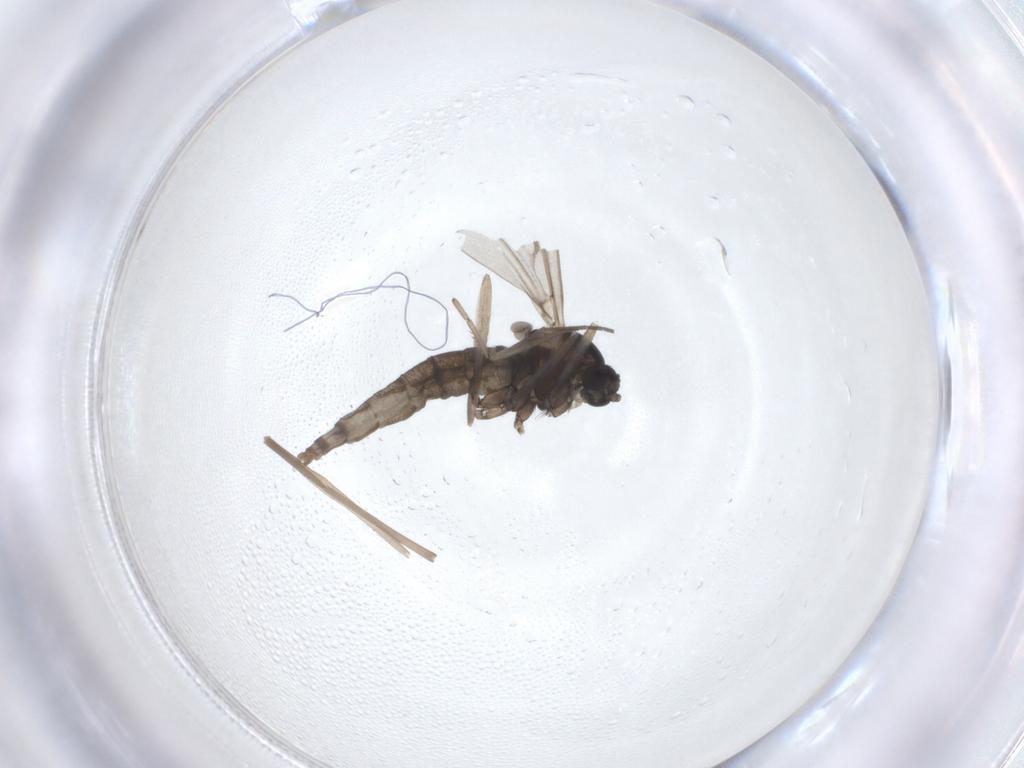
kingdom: Animalia
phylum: Arthropoda
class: Insecta
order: Diptera
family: Cecidomyiidae
